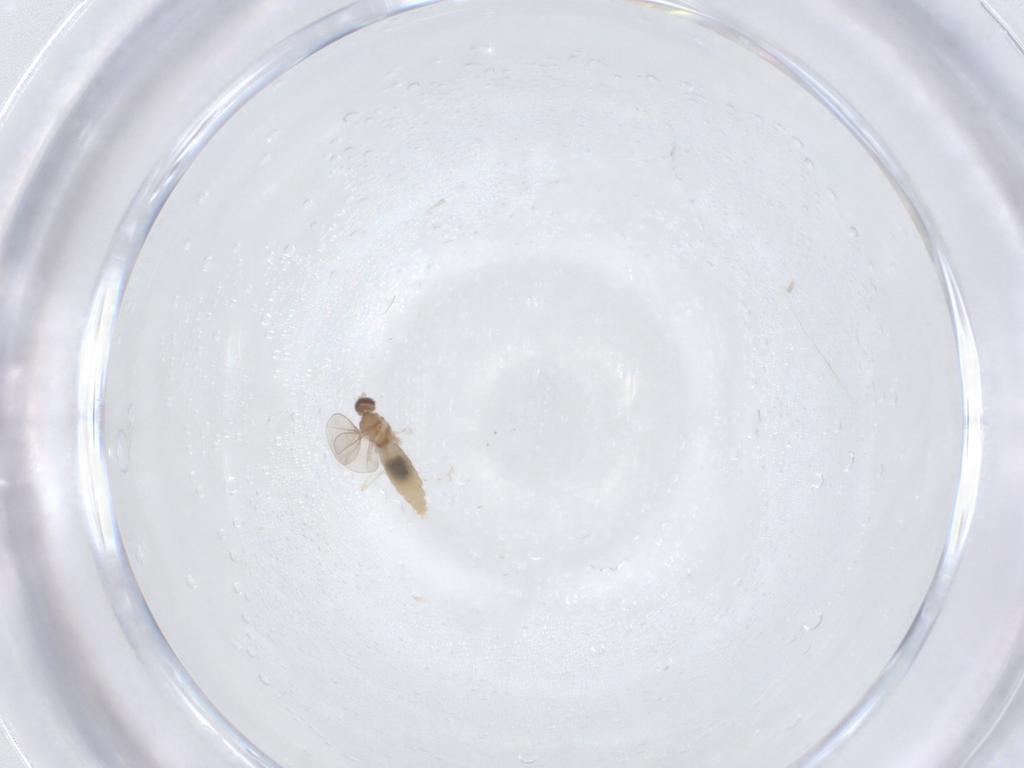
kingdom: Animalia
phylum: Arthropoda
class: Insecta
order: Diptera
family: Cecidomyiidae
